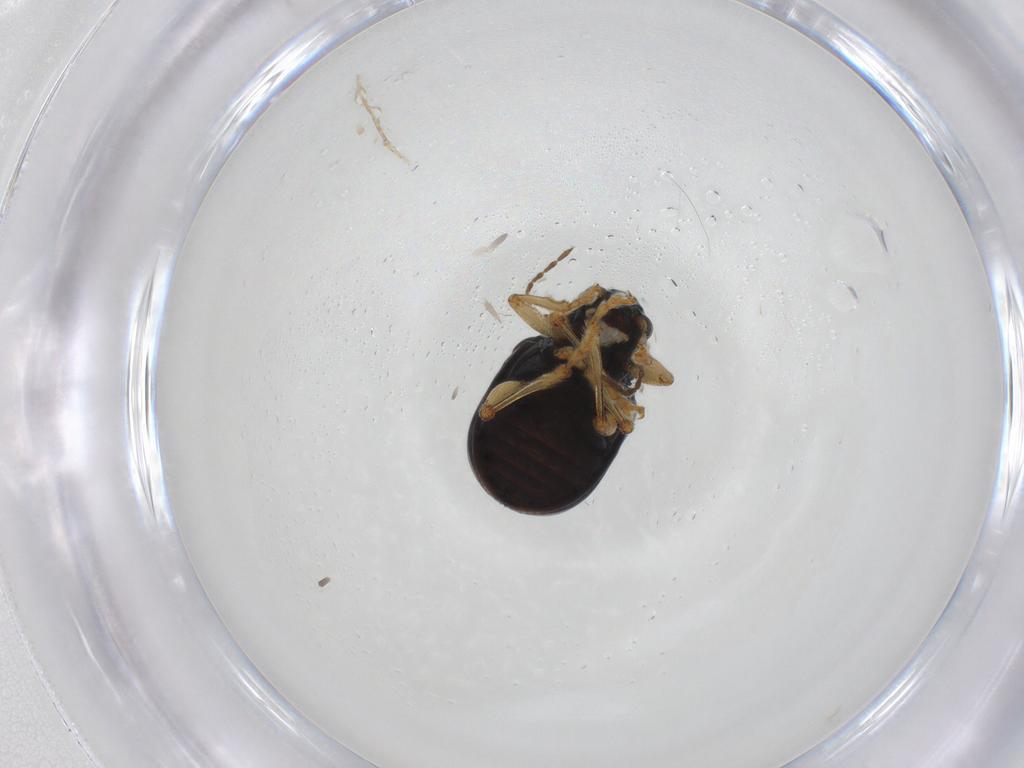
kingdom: Animalia
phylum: Arthropoda
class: Insecta
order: Coleoptera
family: Chrysomelidae
